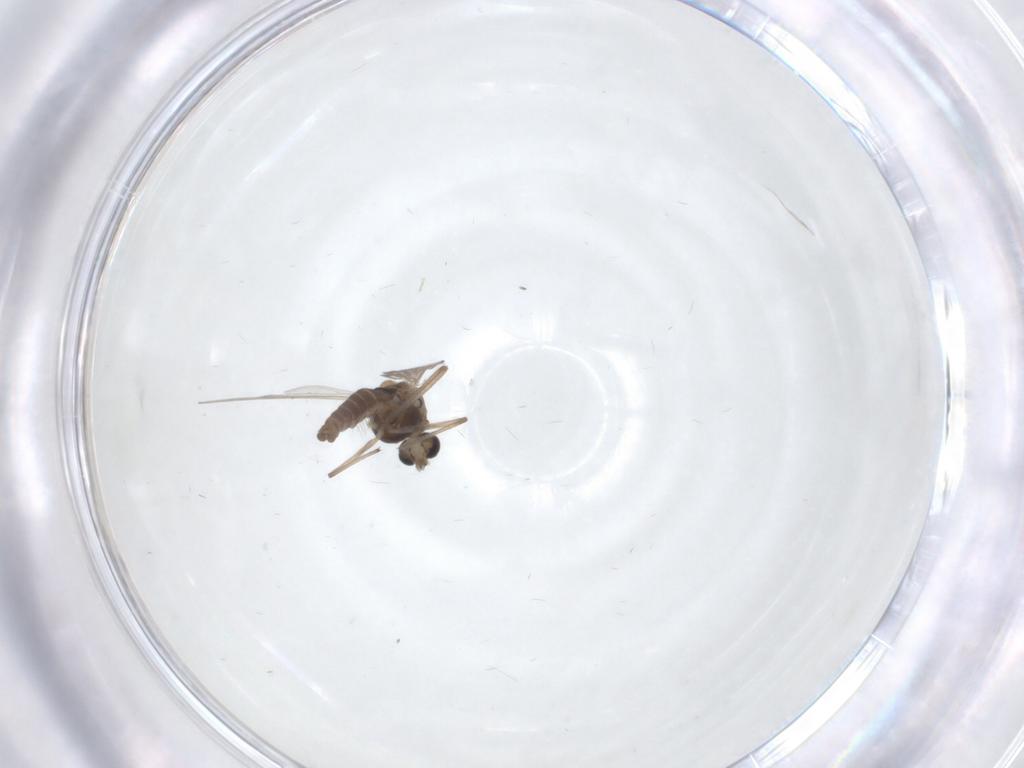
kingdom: Animalia
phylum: Arthropoda
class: Insecta
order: Diptera
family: Chironomidae
